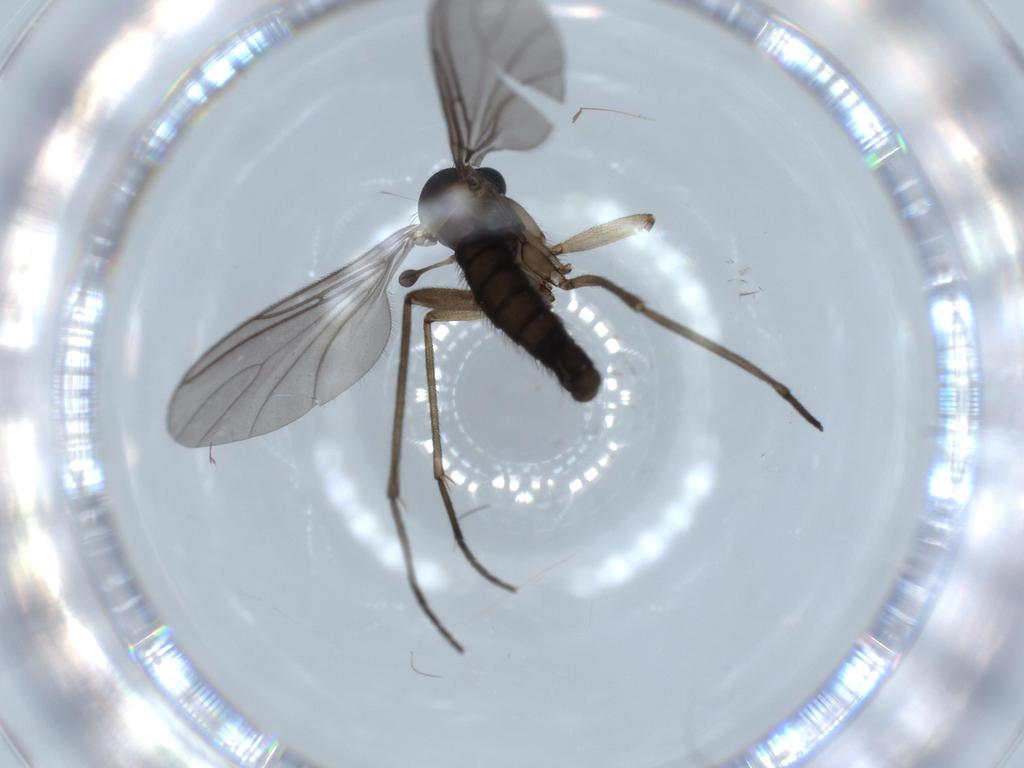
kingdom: Animalia
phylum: Arthropoda
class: Insecta
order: Diptera
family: Sciaridae
